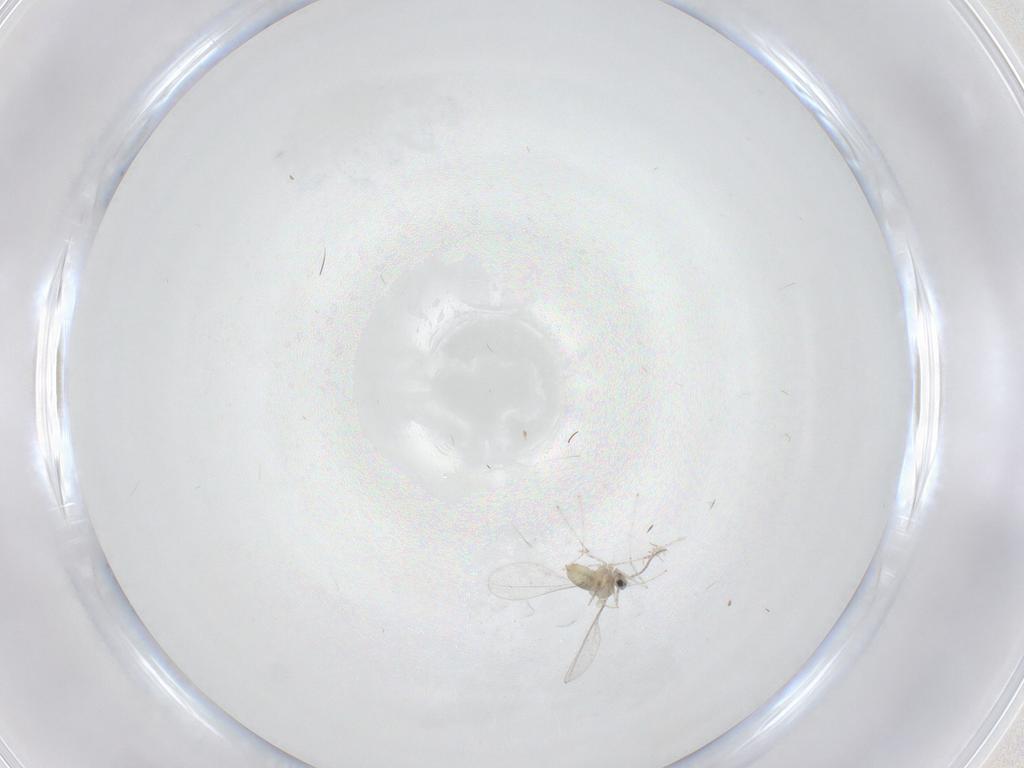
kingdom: Animalia
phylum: Arthropoda
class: Insecta
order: Diptera
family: Cecidomyiidae
